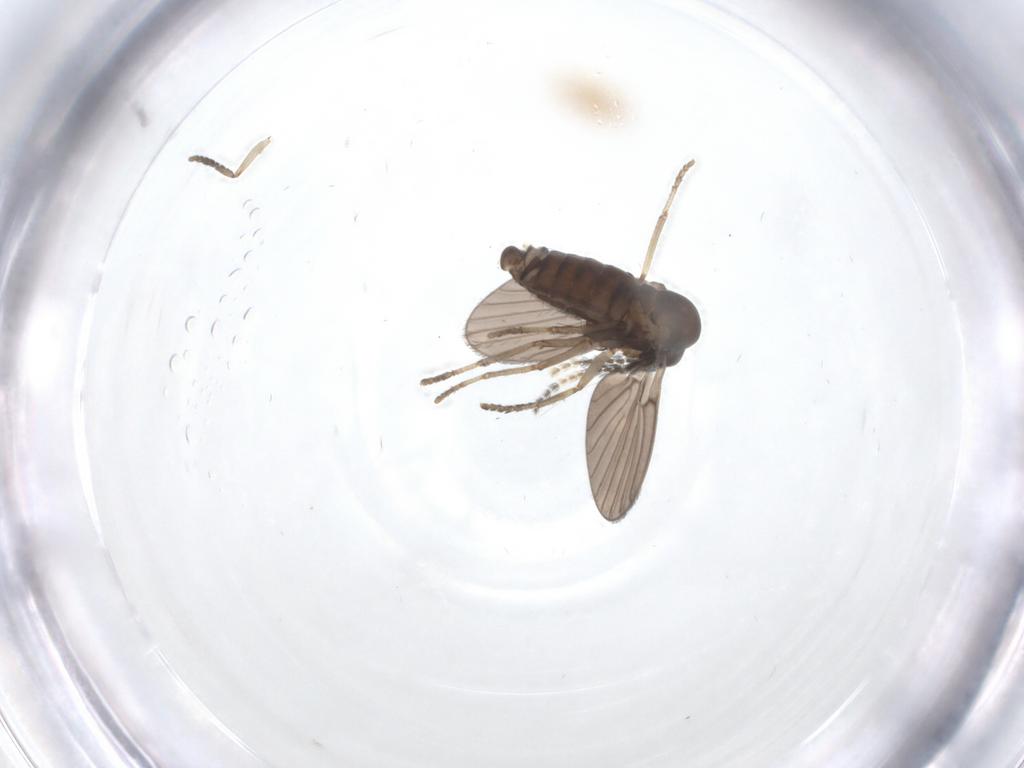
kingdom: Animalia
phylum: Arthropoda
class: Insecta
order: Diptera
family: Psychodidae
